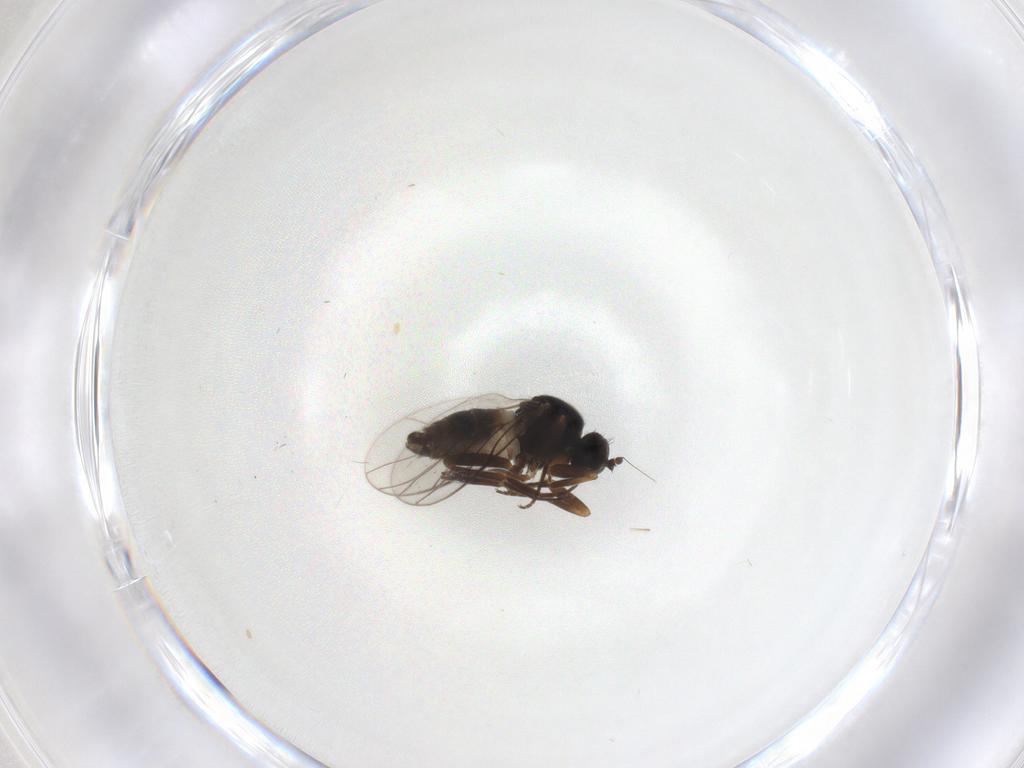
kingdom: Animalia
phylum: Arthropoda
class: Insecta
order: Diptera
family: Hybotidae
